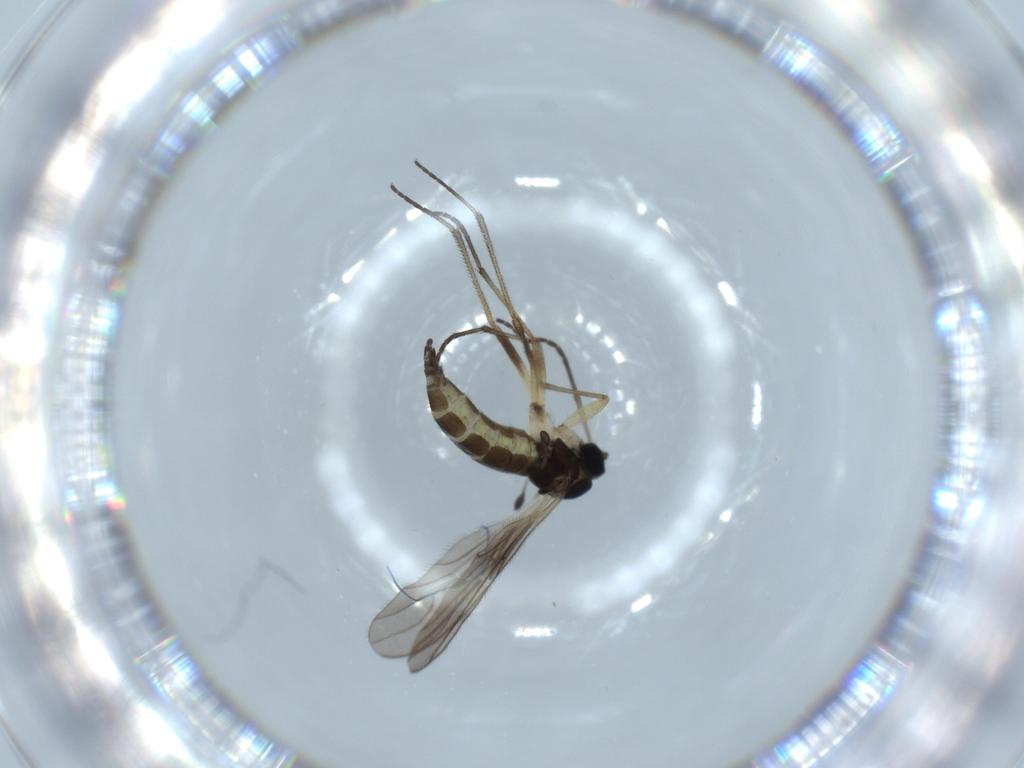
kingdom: Animalia
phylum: Arthropoda
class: Insecta
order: Diptera
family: Sciaridae
